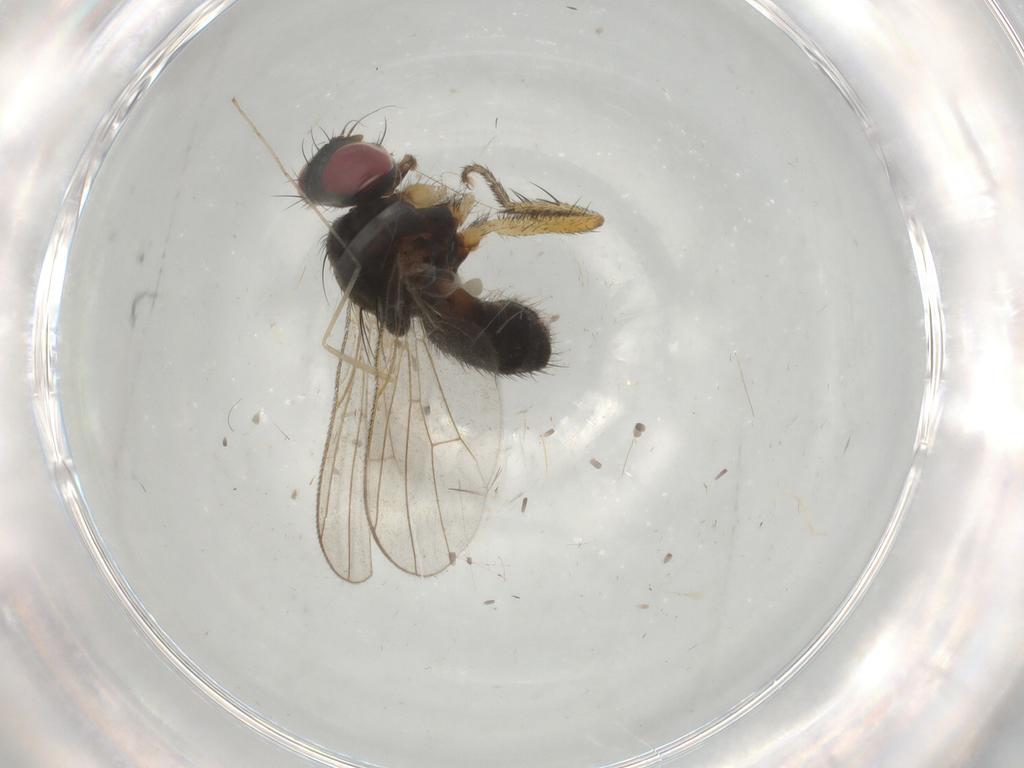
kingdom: Animalia
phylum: Arthropoda
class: Insecta
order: Diptera
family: Muscidae
